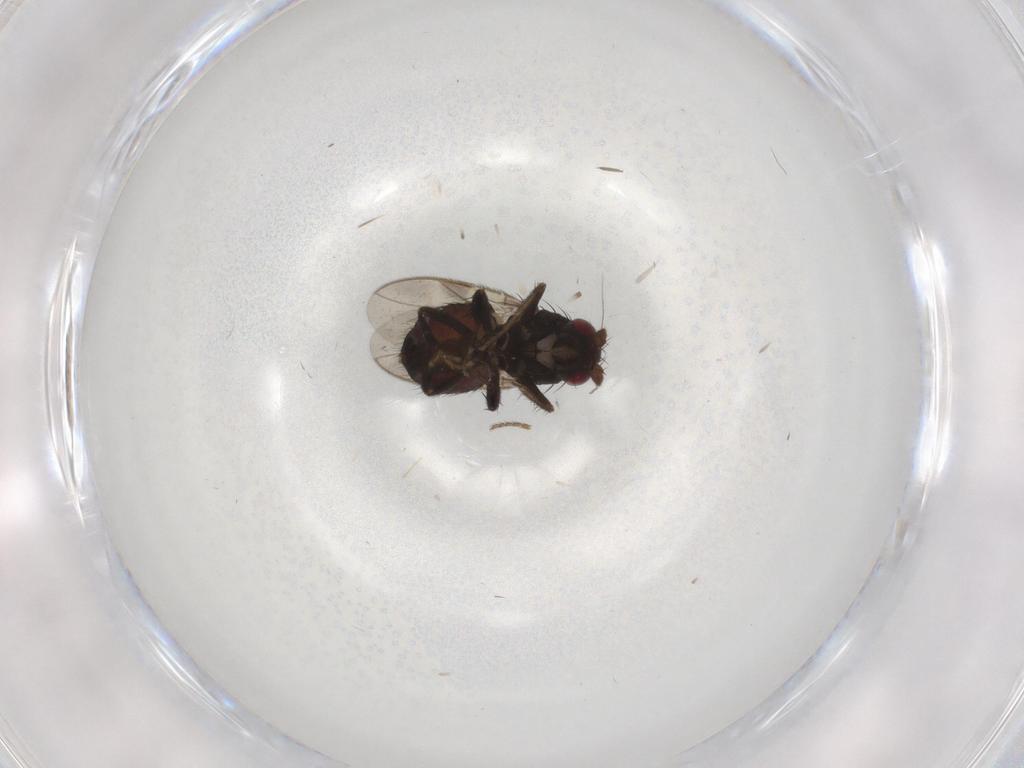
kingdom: Animalia
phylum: Arthropoda
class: Insecta
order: Diptera
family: Sphaeroceridae
